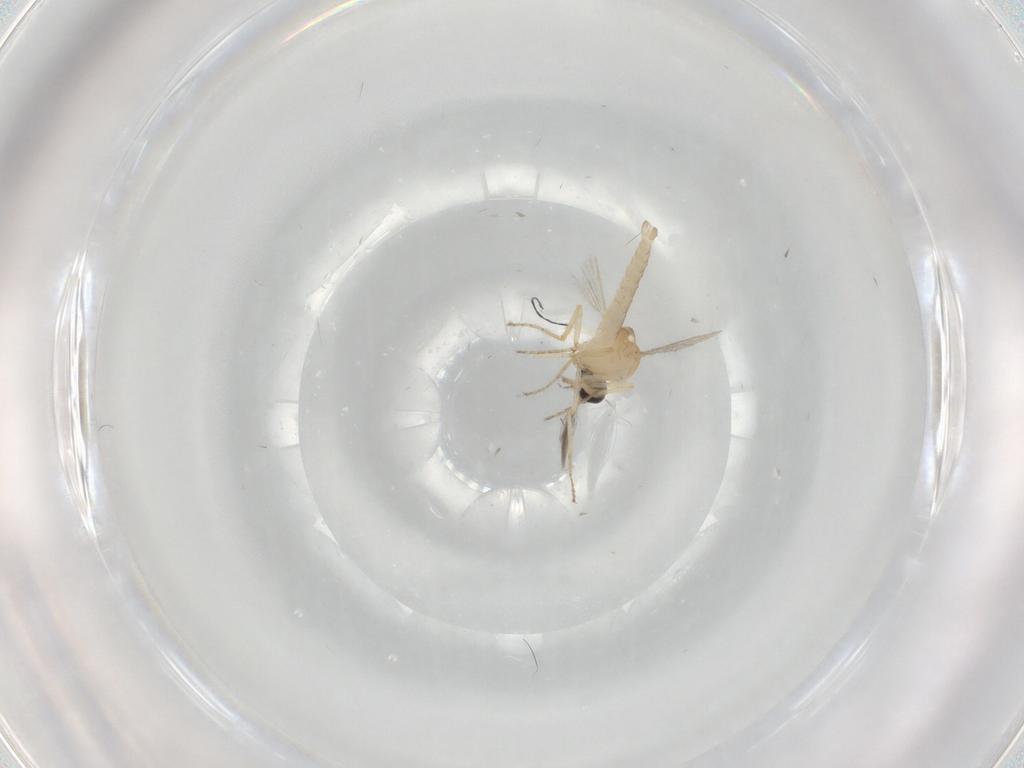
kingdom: Animalia
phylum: Arthropoda
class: Insecta
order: Diptera
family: Ceratopogonidae
